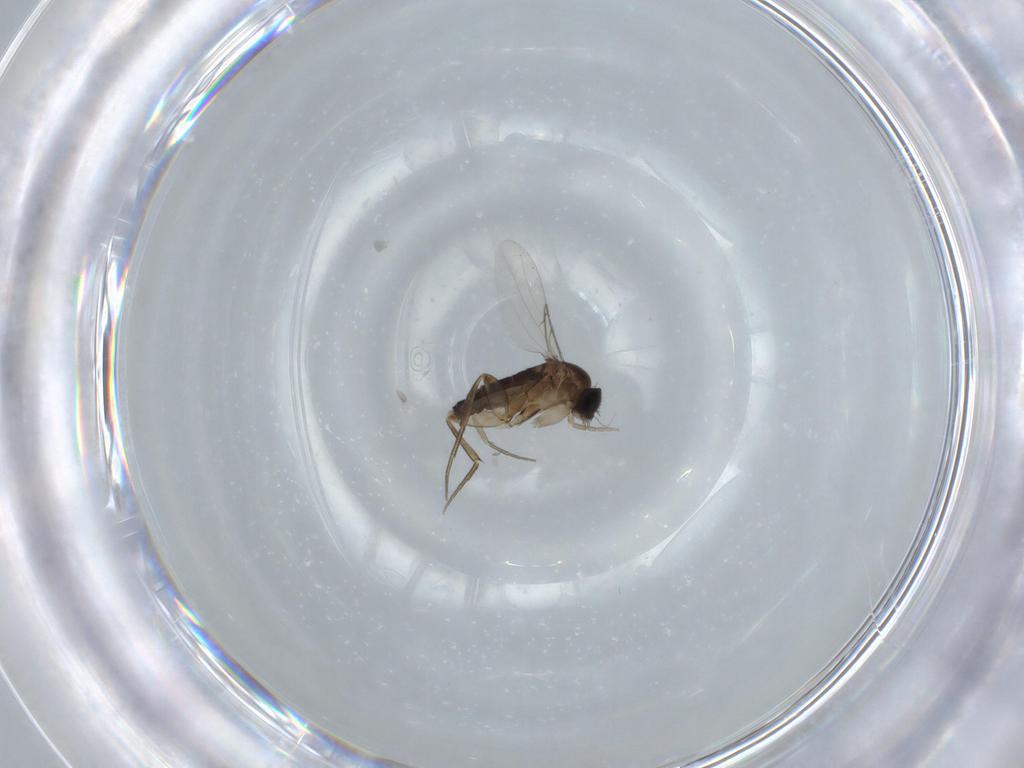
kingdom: Animalia
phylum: Arthropoda
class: Insecta
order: Diptera
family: Phoridae
